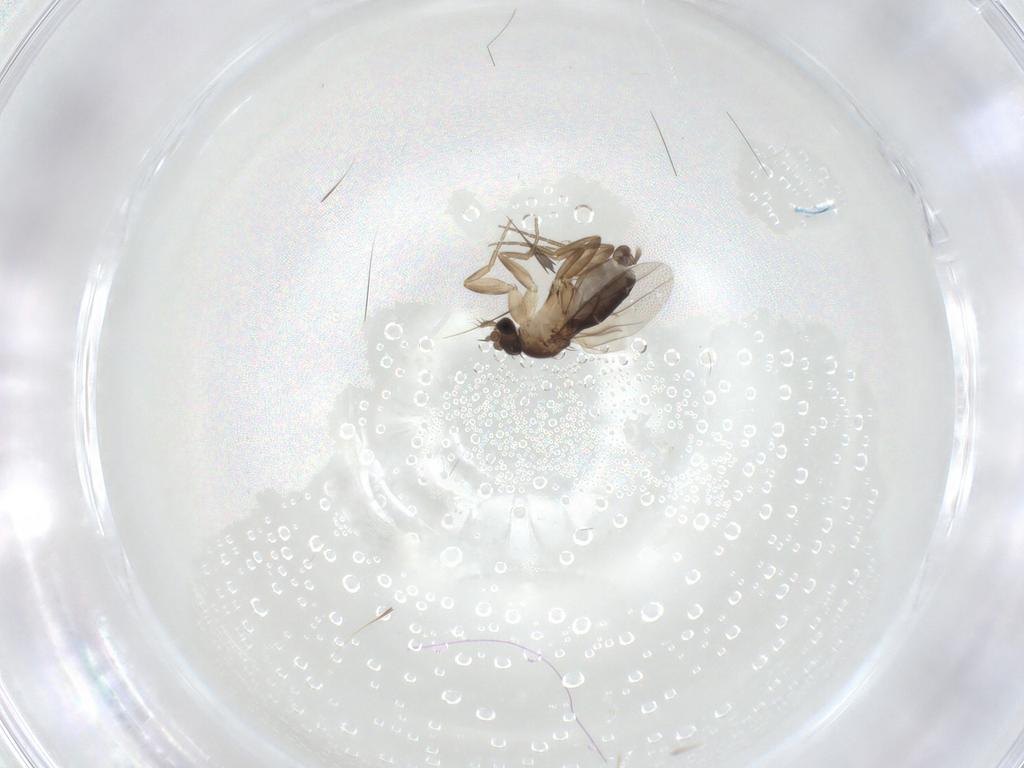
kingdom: Animalia
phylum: Arthropoda
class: Insecta
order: Diptera
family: Phoridae
